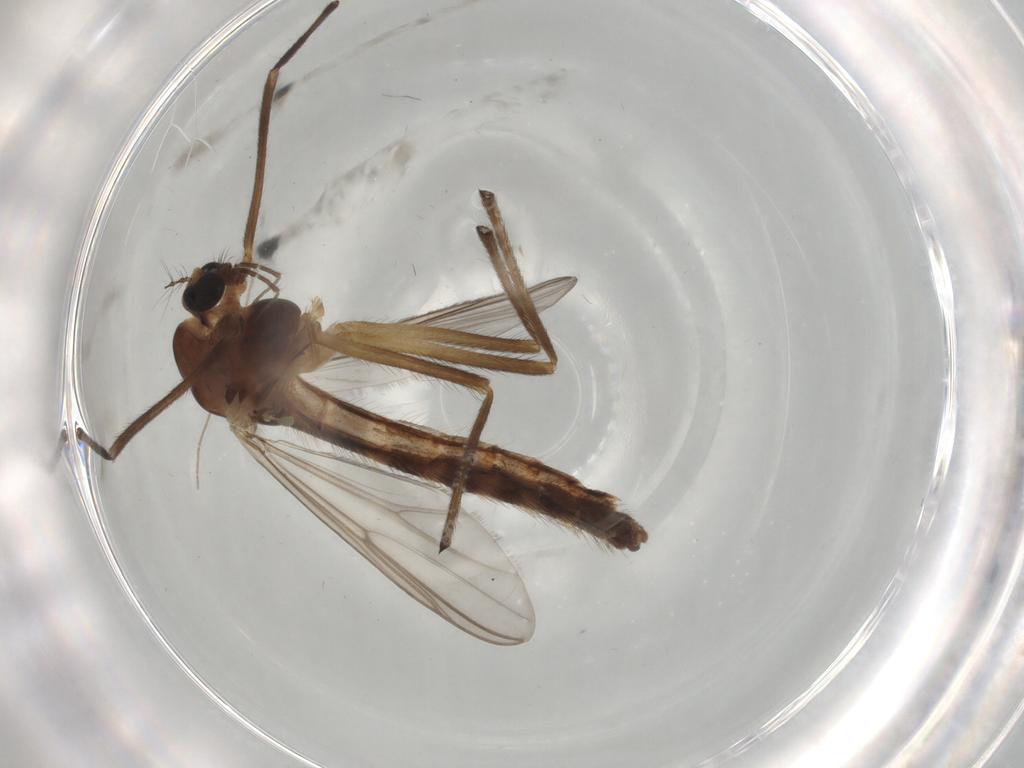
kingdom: Animalia
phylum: Arthropoda
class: Insecta
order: Diptera
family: Chironomidae
